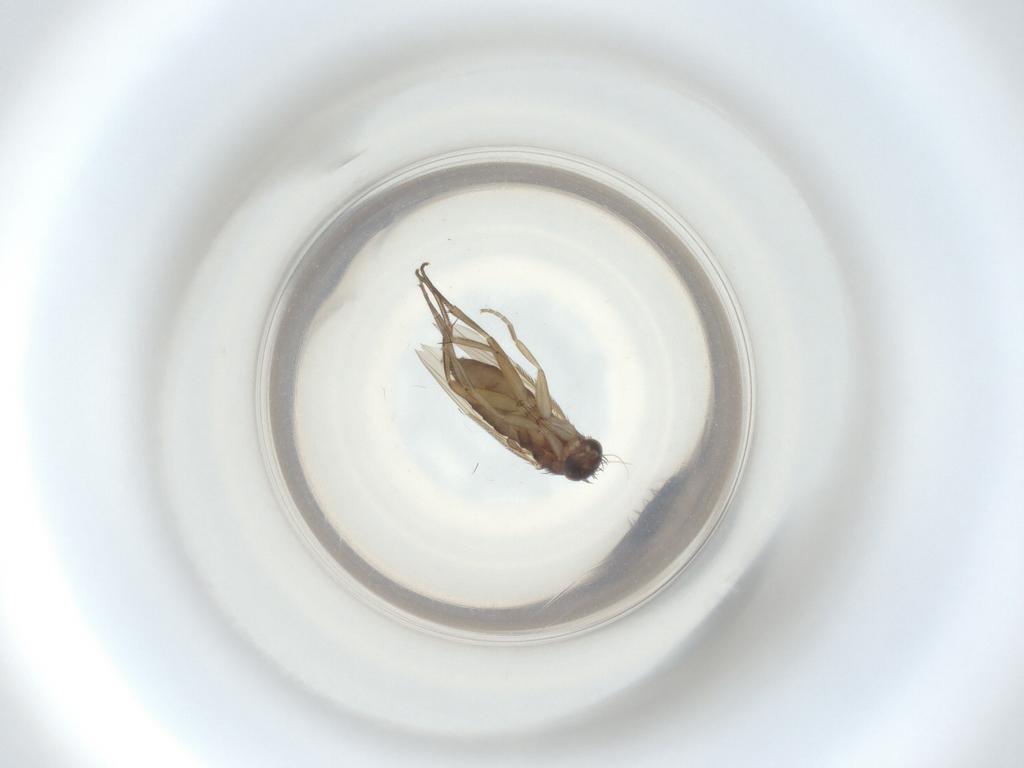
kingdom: Animalia
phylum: Arthropoda
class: Insecta
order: Diptera
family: Phoridae
